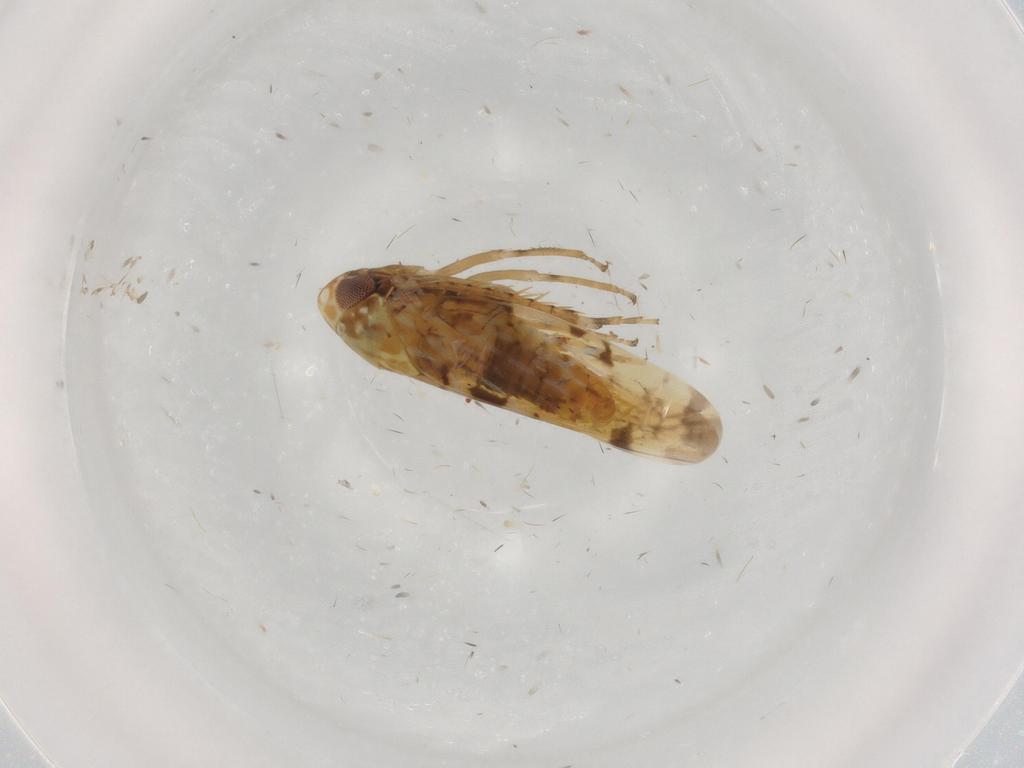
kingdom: Animalia
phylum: Arthropoda
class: Insecta
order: Hemiptera
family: Cicadellidae
